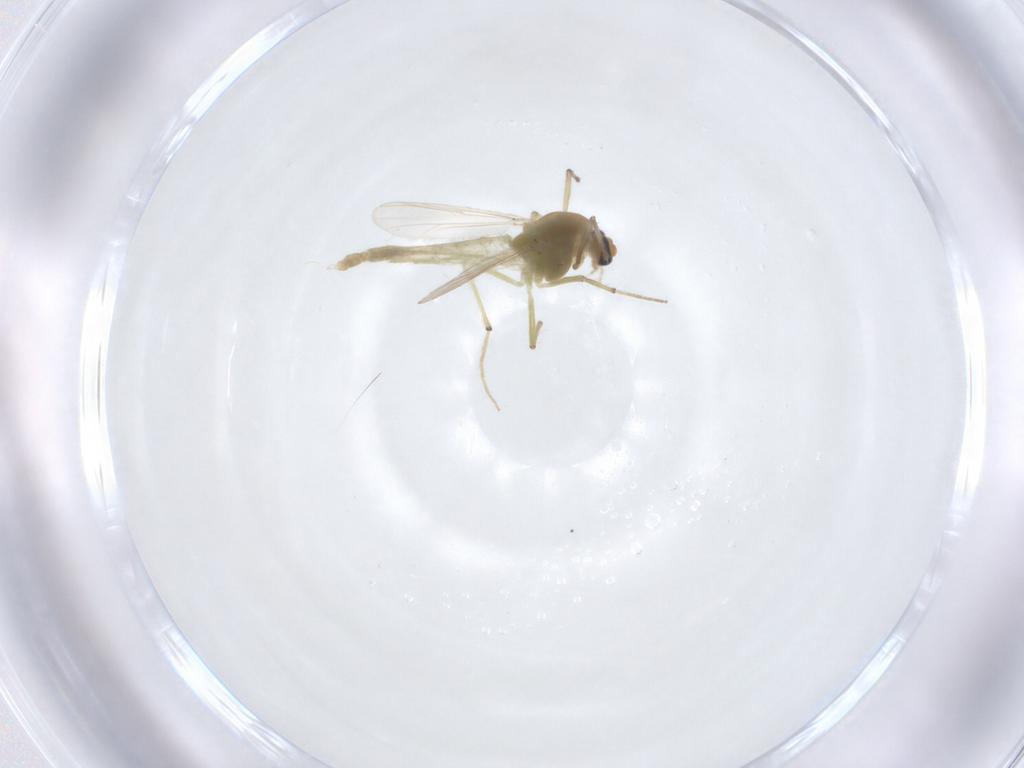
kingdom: Animalia
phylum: Arthropoda
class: Insecta
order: Diptera
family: Chironomidae
